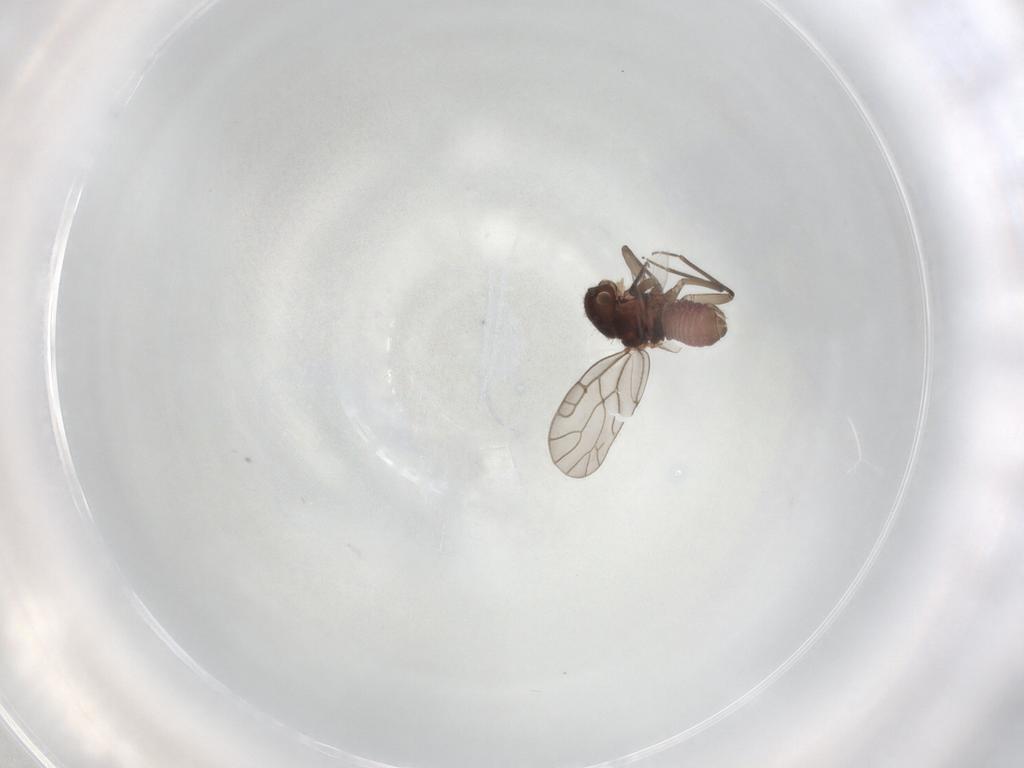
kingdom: Animalia
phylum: Arthropoda
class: Insecta
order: Psocodea
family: Ectopsocidae
